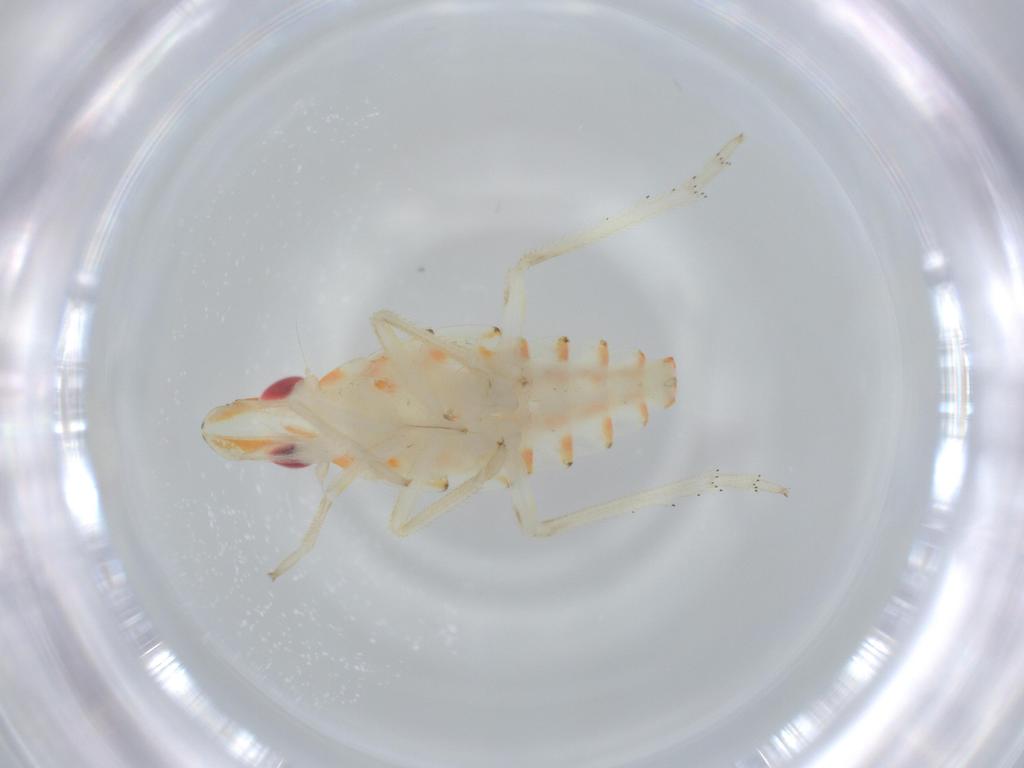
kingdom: Animalia
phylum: Arthropoda
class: Insecta
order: Hemiptera
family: Tropiduchidae
